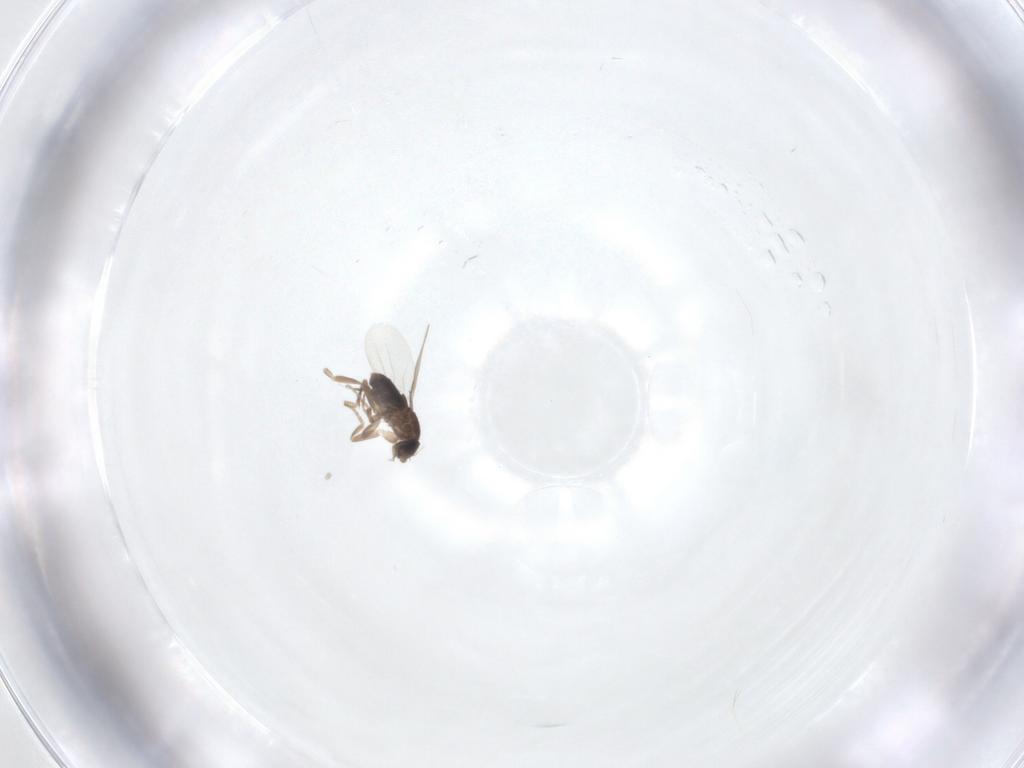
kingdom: Animalia
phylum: Arthropoda
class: Insecta
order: Diptera
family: Phoridae
